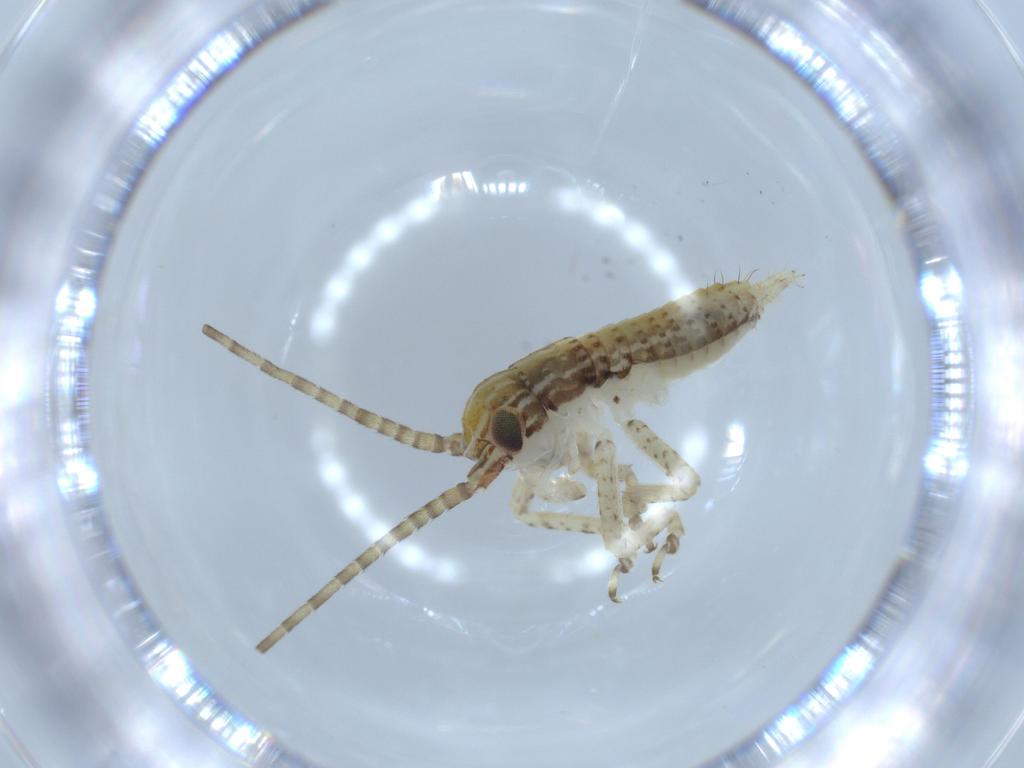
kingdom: Animalia
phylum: Arthropoda
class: Insecta
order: Orthoptera
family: Gryllidae
